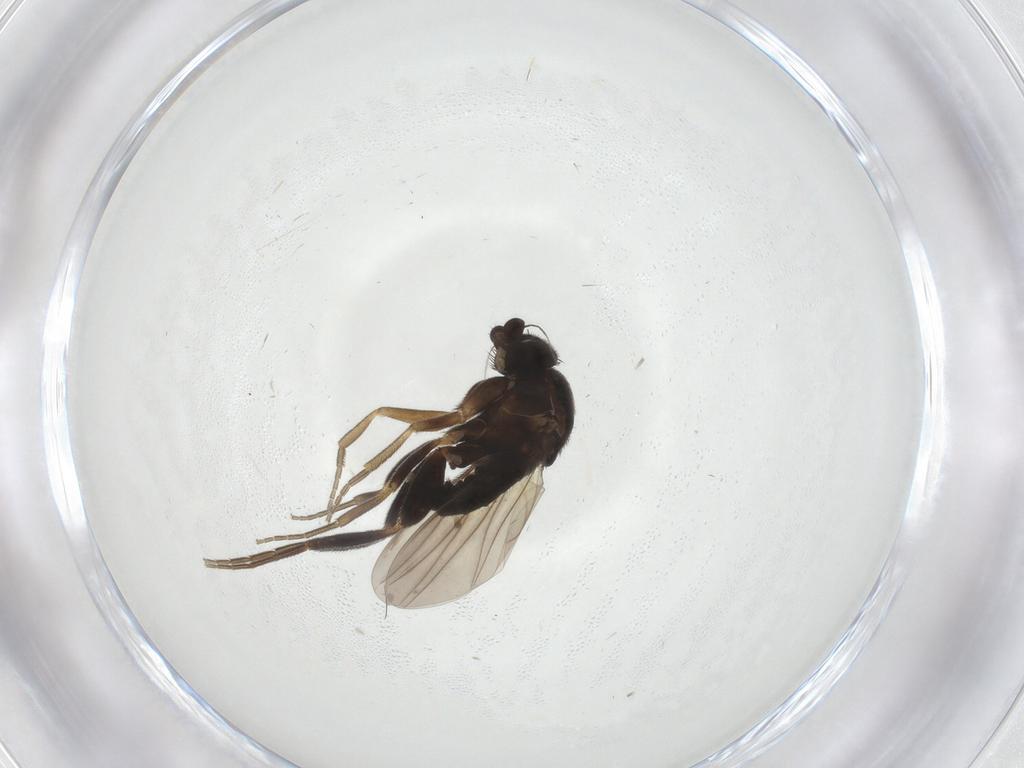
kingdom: Animalia
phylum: Arthropoda
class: Insecta
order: Diptera
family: Phoridae
